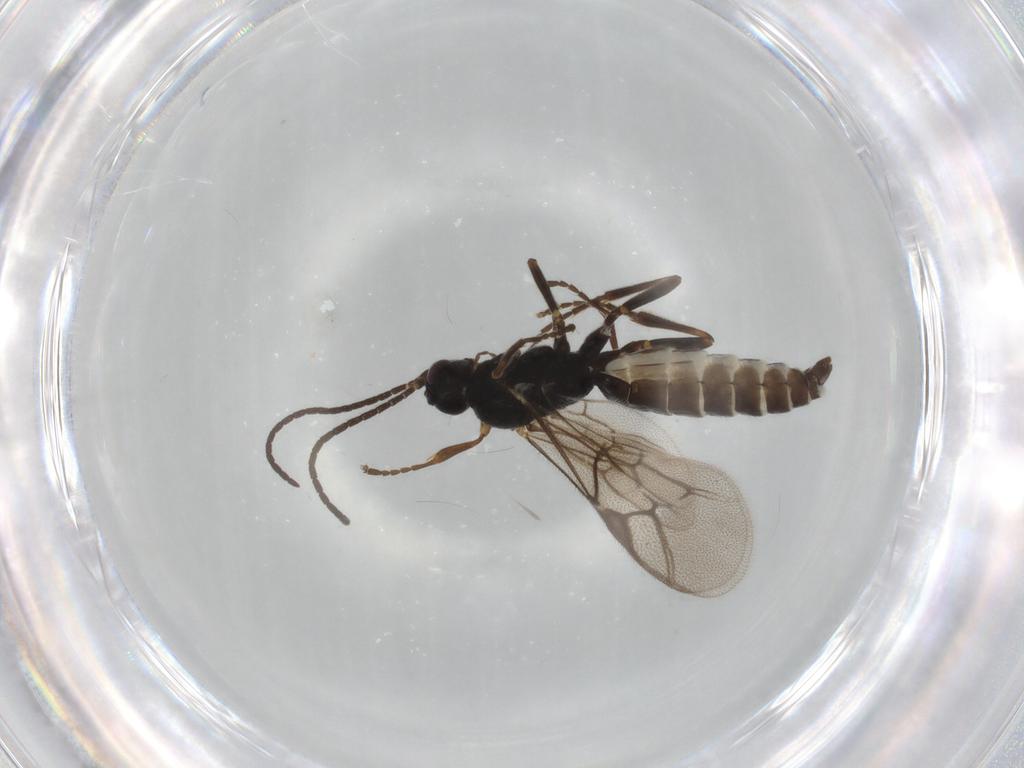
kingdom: Animalia
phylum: Arthropoda
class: Insecta
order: Hymenoptera
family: Ichneumonidae
